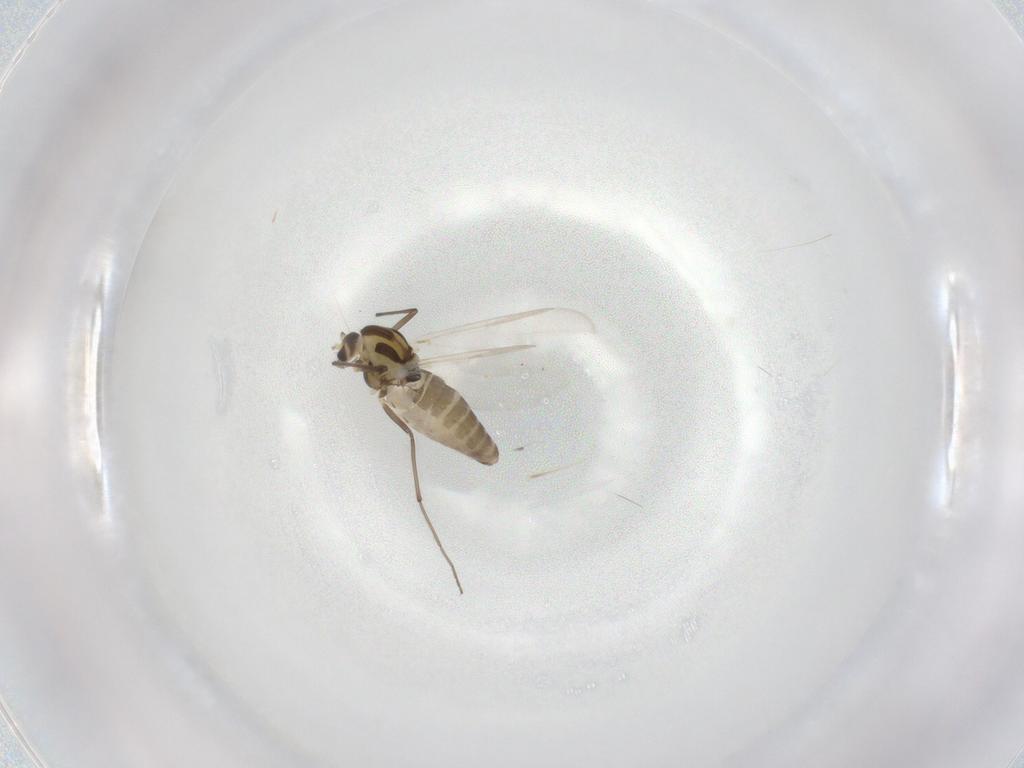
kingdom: Animalia
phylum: Arthropoda
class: Insecta
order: Diptera
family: Chironomidae
